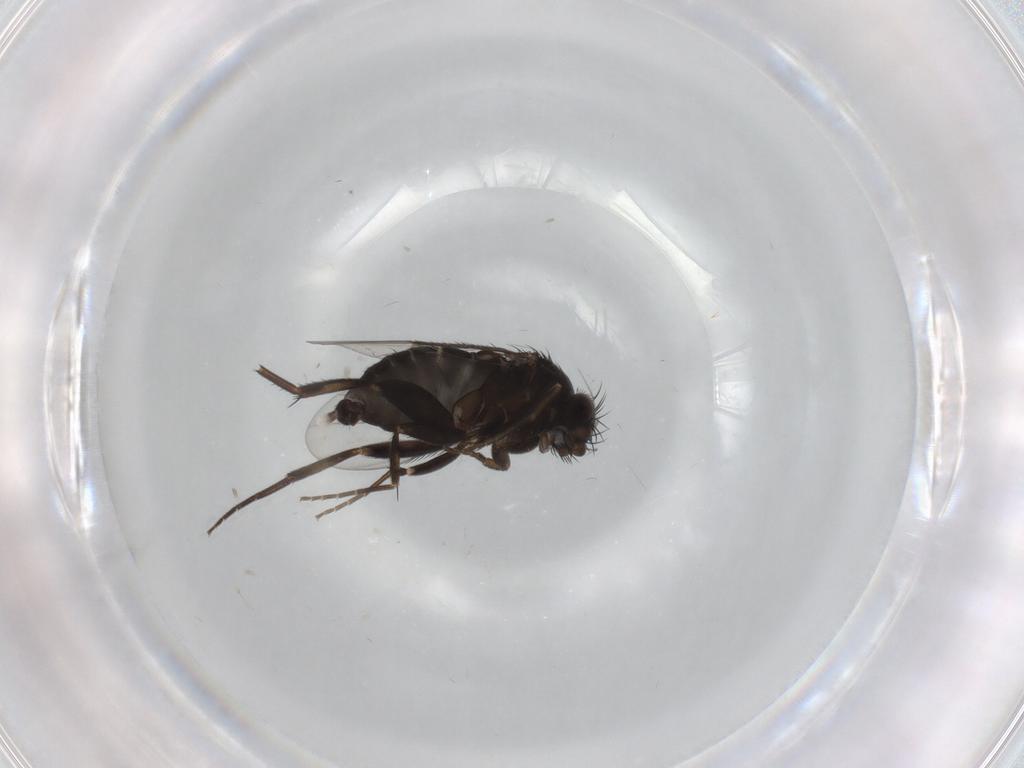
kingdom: Animalia
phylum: Arthropoda
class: Insecta
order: Diptera
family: Phoridae
